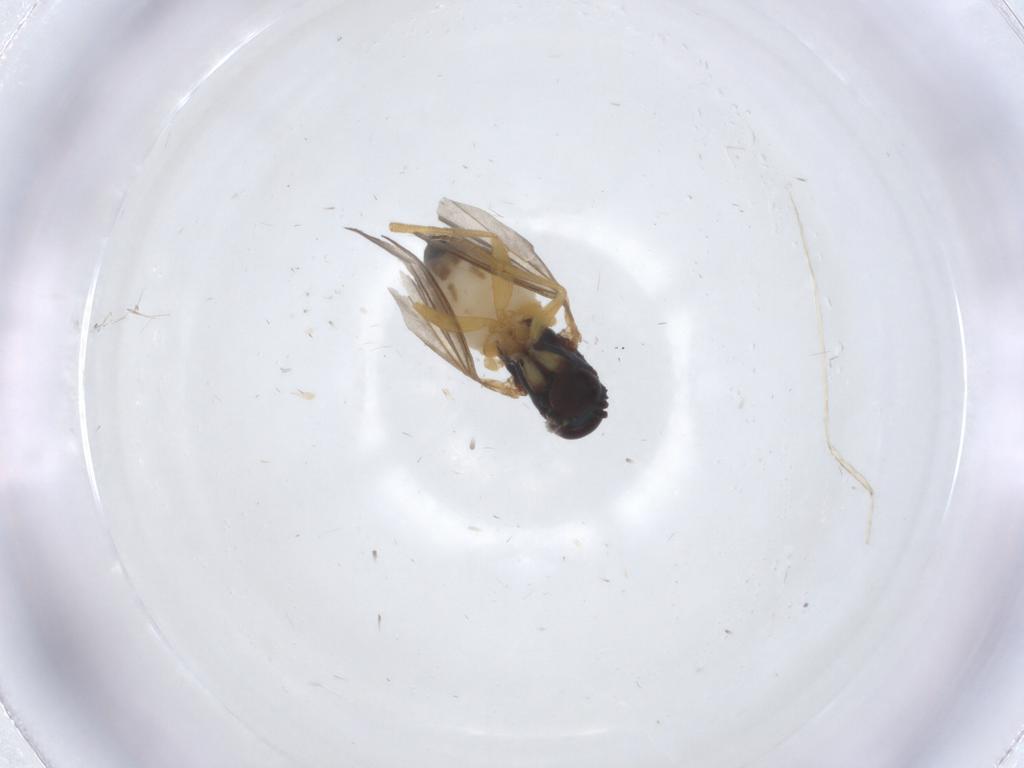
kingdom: Animalia
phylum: Arthropoda
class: Insecta
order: Diptera
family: Dolichopodidae
